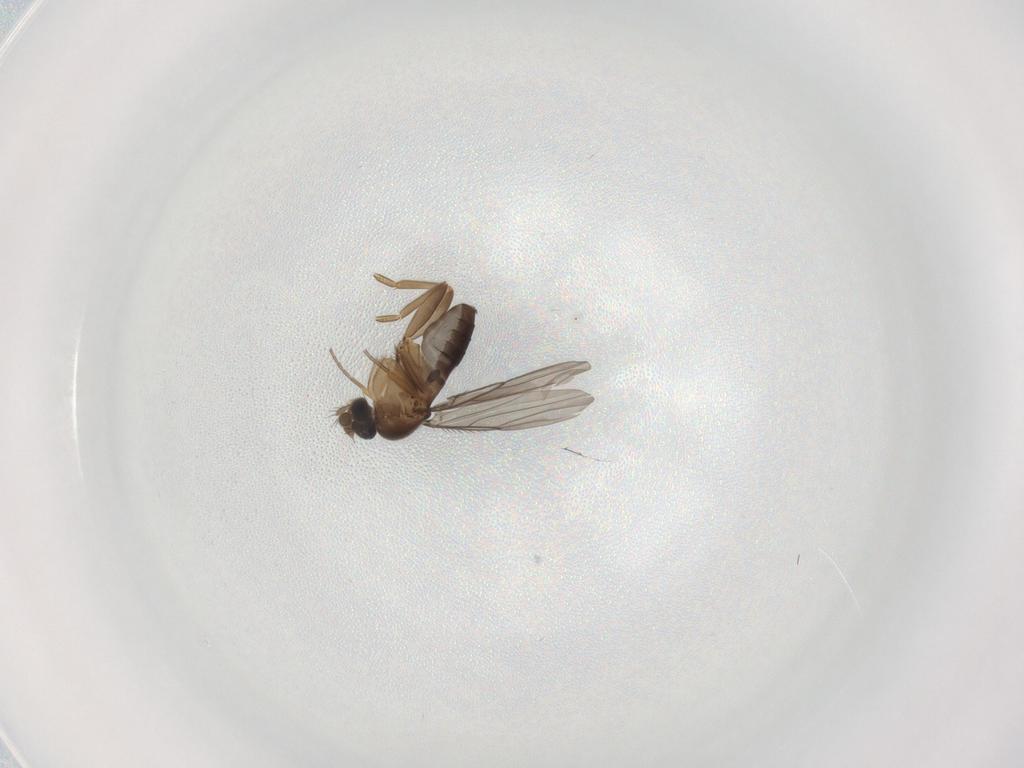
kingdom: Animalia
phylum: Arthropoda
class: Insecta
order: Diptera
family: Phoridae
